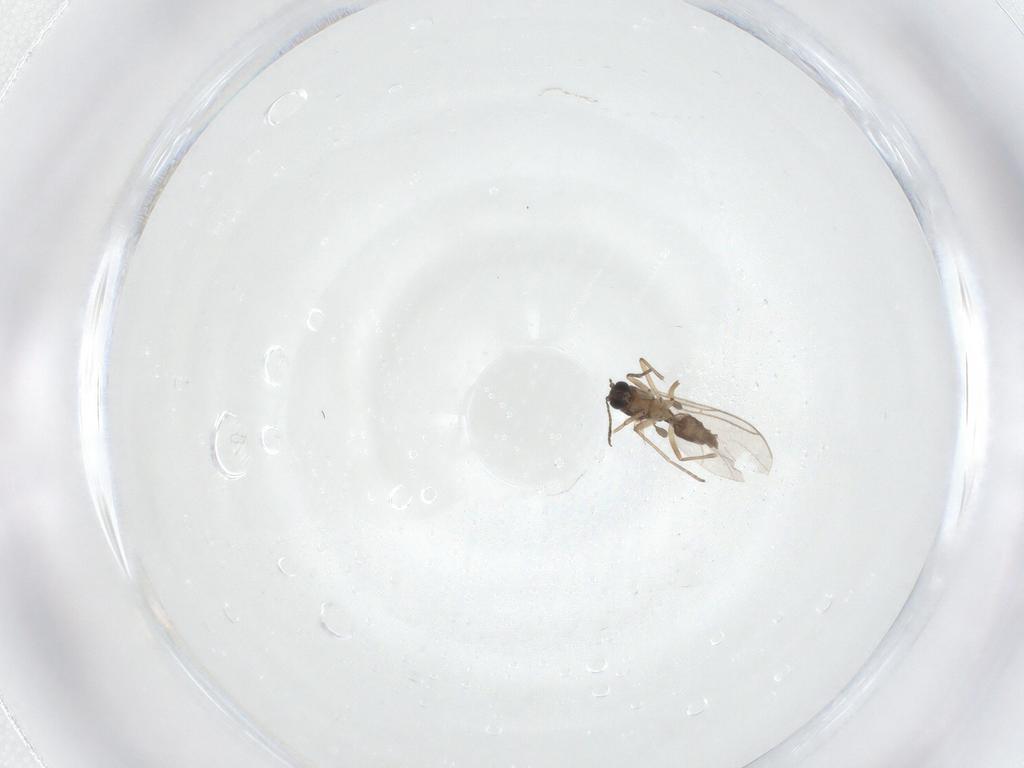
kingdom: Animalia
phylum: Arthropoda
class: Insecta
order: Diptera
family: Sciaridae
